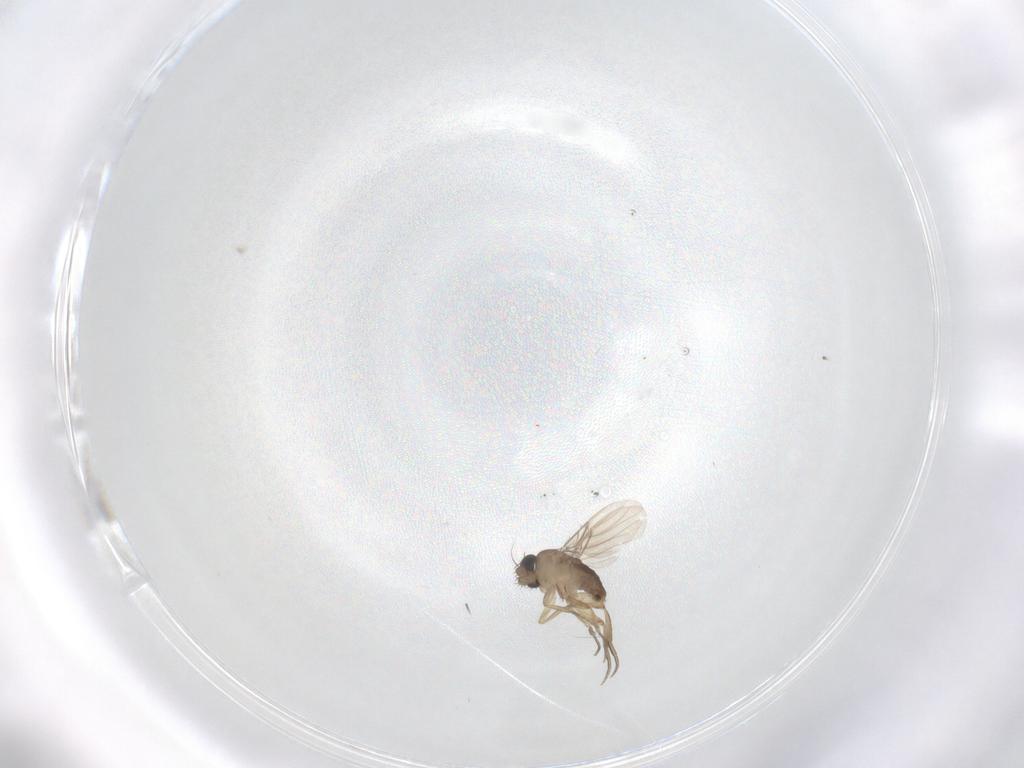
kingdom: Animalia
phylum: Arthropoda
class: Insecta
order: Diptera
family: Phoridae
